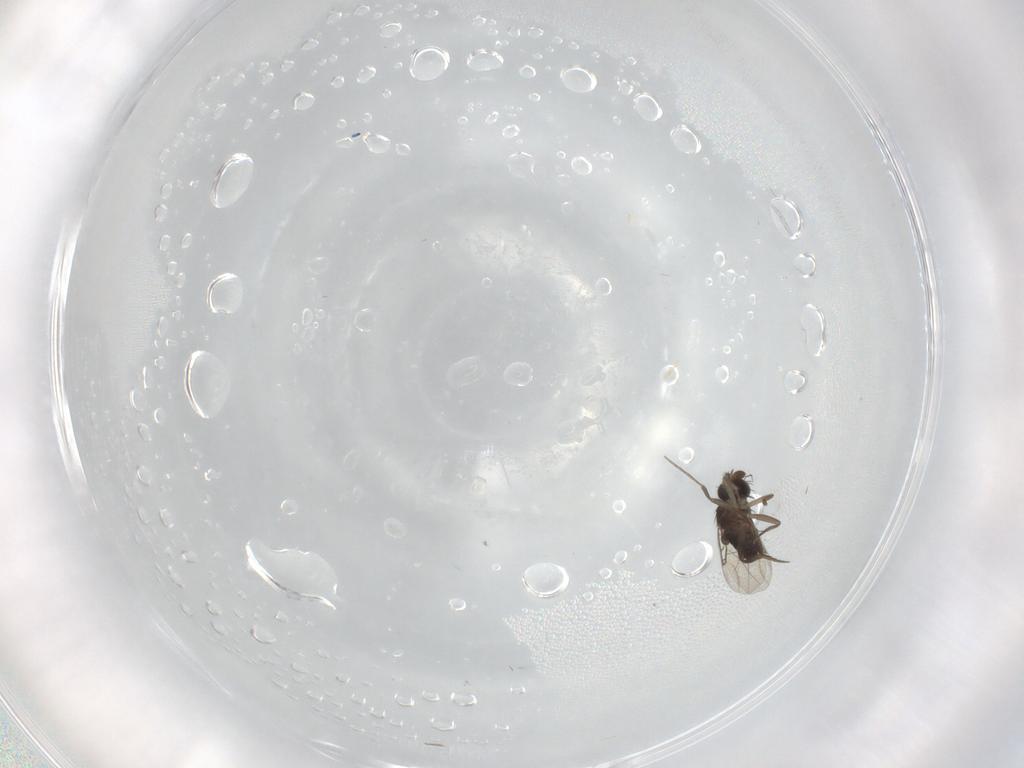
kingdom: Animalia
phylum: Arthropoda
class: Insecta
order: Diptera
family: Phoridae
